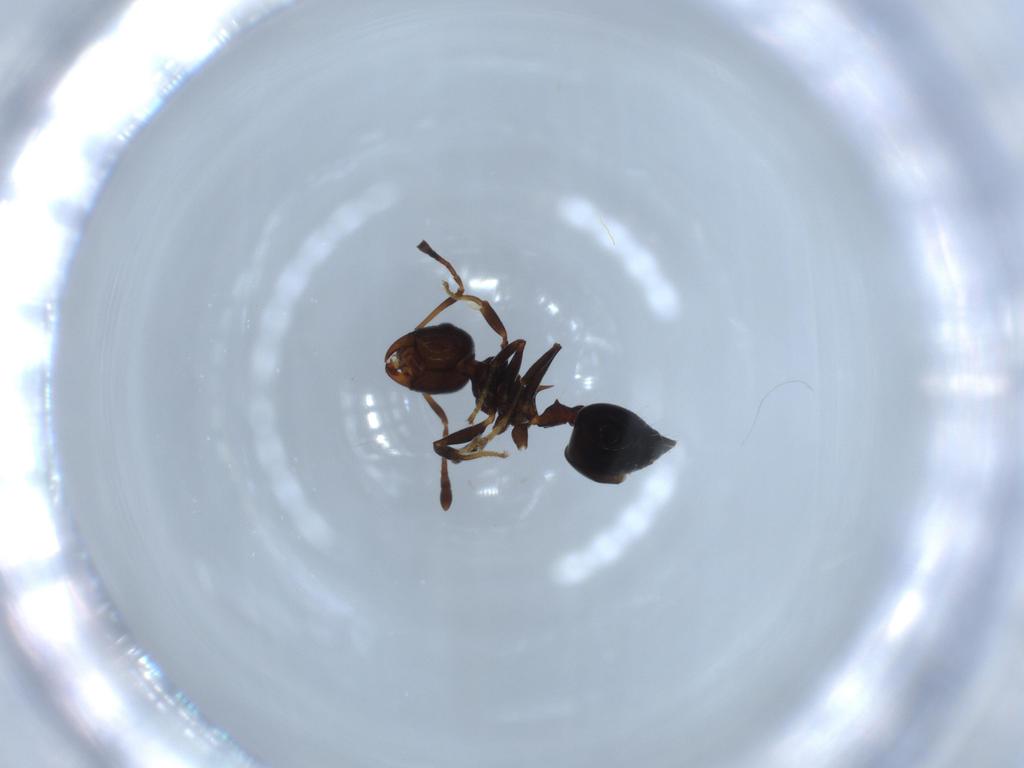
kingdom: Animalia
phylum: Arthropoda
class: Insecta
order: Hymenoptera
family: Formicidae
